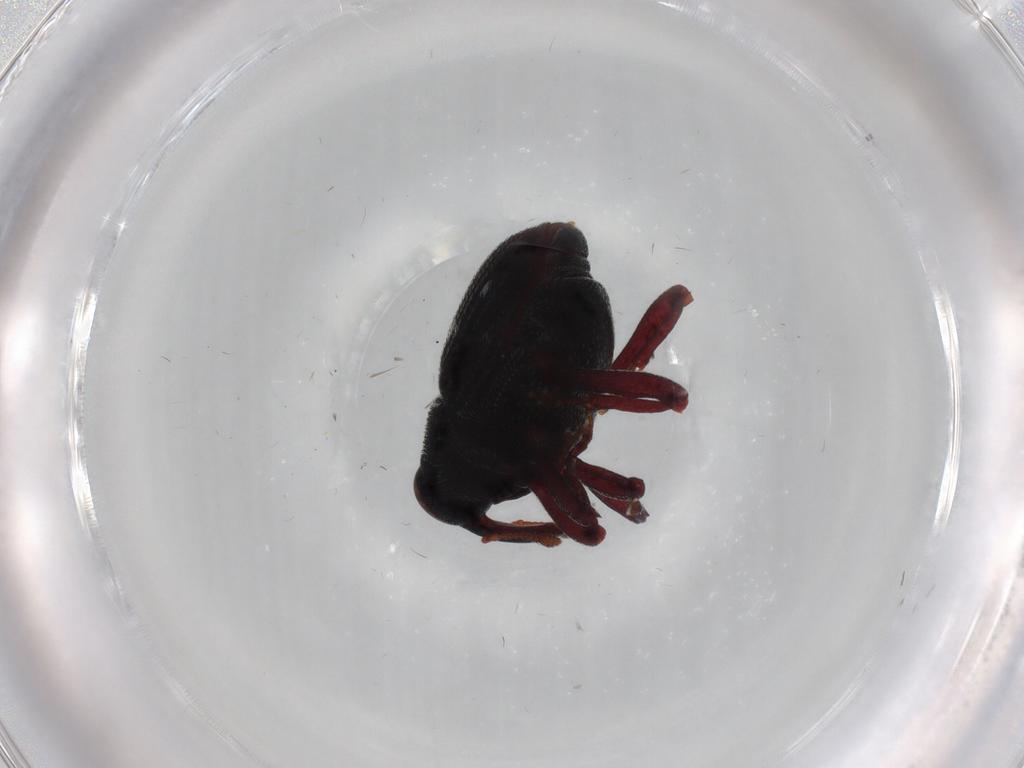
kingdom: Animalia
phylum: Arthropoda
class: Insecta
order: Coleoptera
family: Curculionidae
